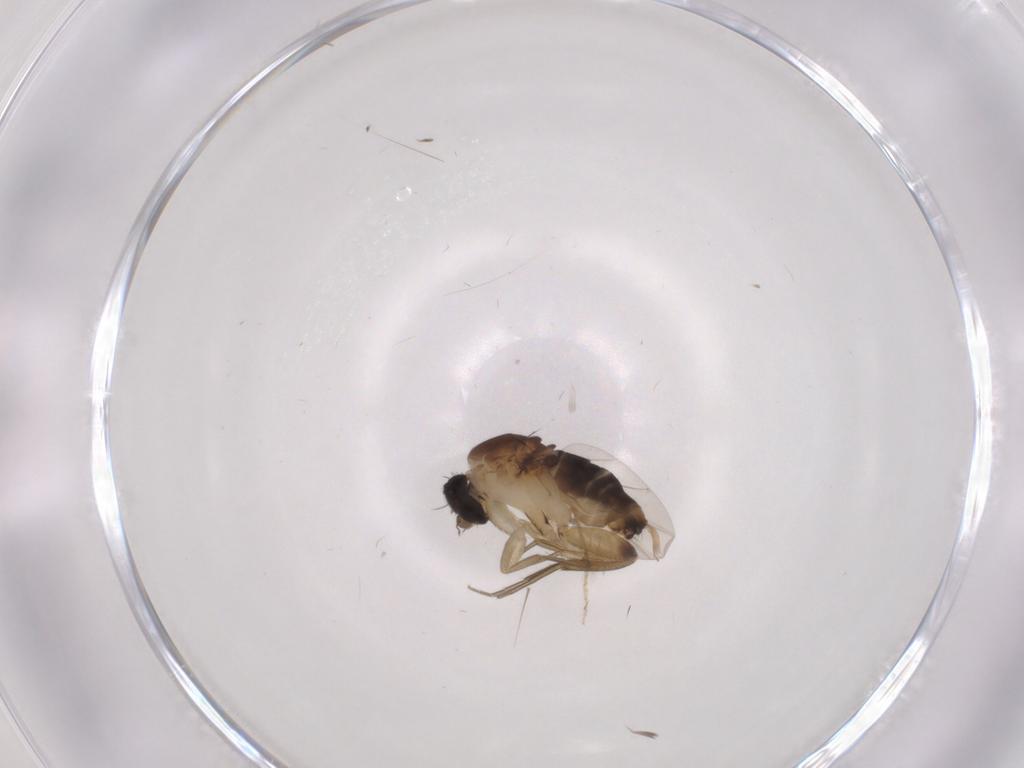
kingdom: Animalia
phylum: Arthropoda
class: Insecta
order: Diptera
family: Phoridae
